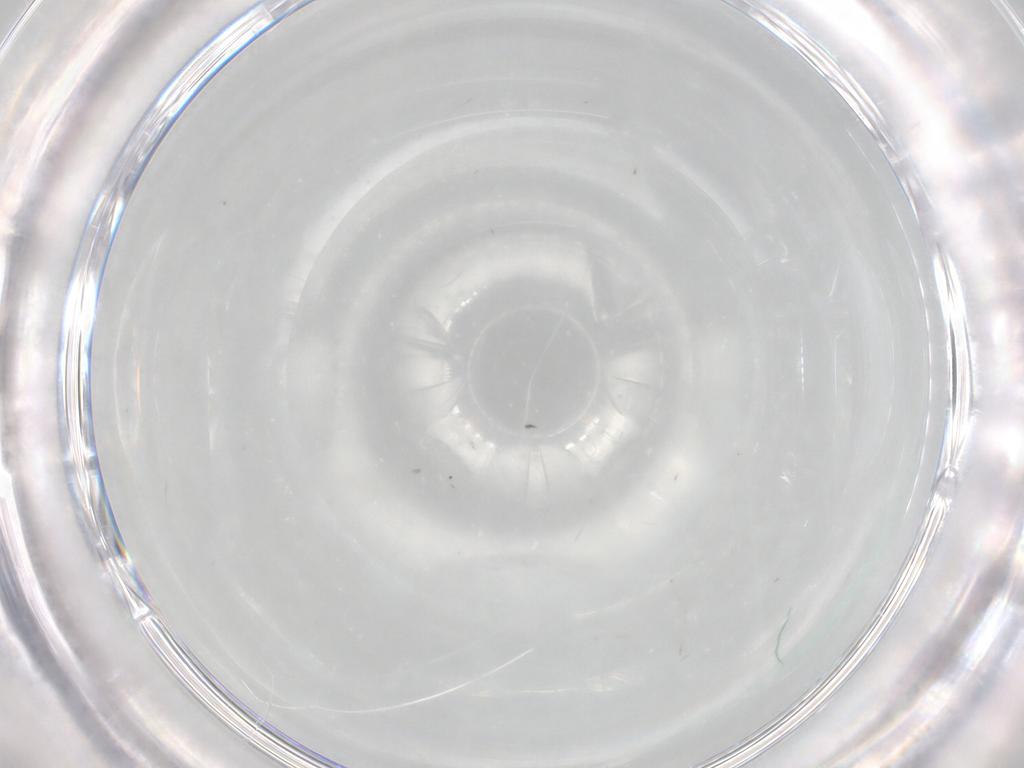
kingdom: Animalia
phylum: Arthropoda
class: Insecta
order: Diptera
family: Cecidomyiidae
